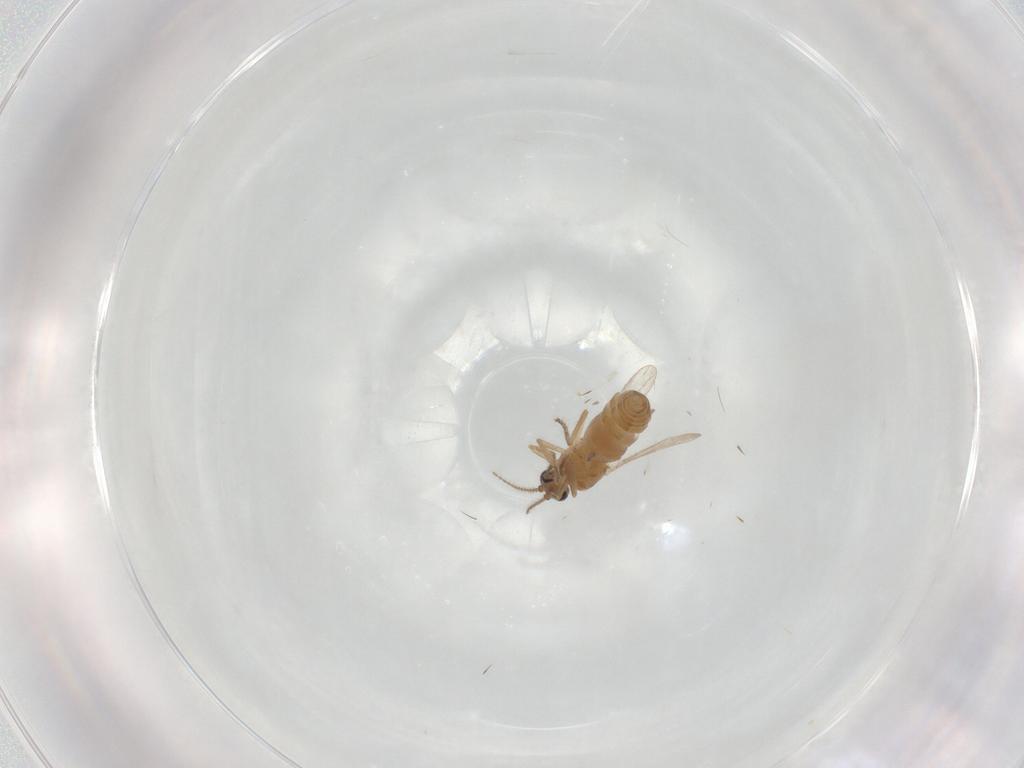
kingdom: Animalia
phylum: Arthropoda
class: Insecta
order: Diptera
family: Ceratopogonidae
